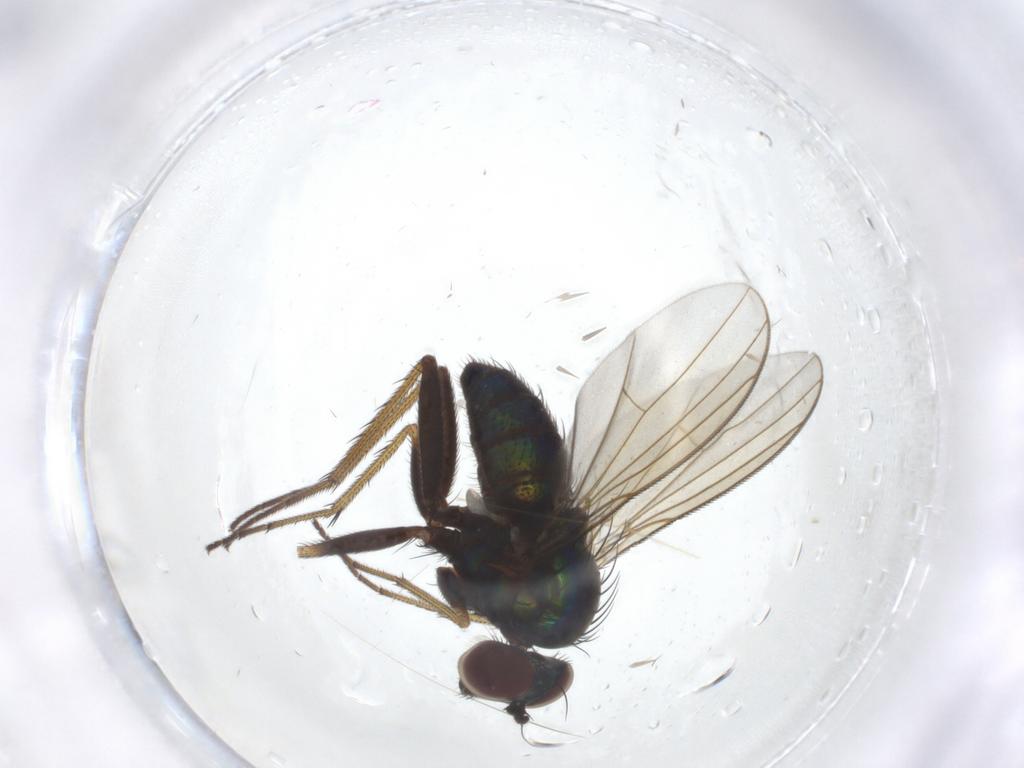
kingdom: Animalia
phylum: Arthropoda
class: Insecta
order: Diptera
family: Dolichopodidae
